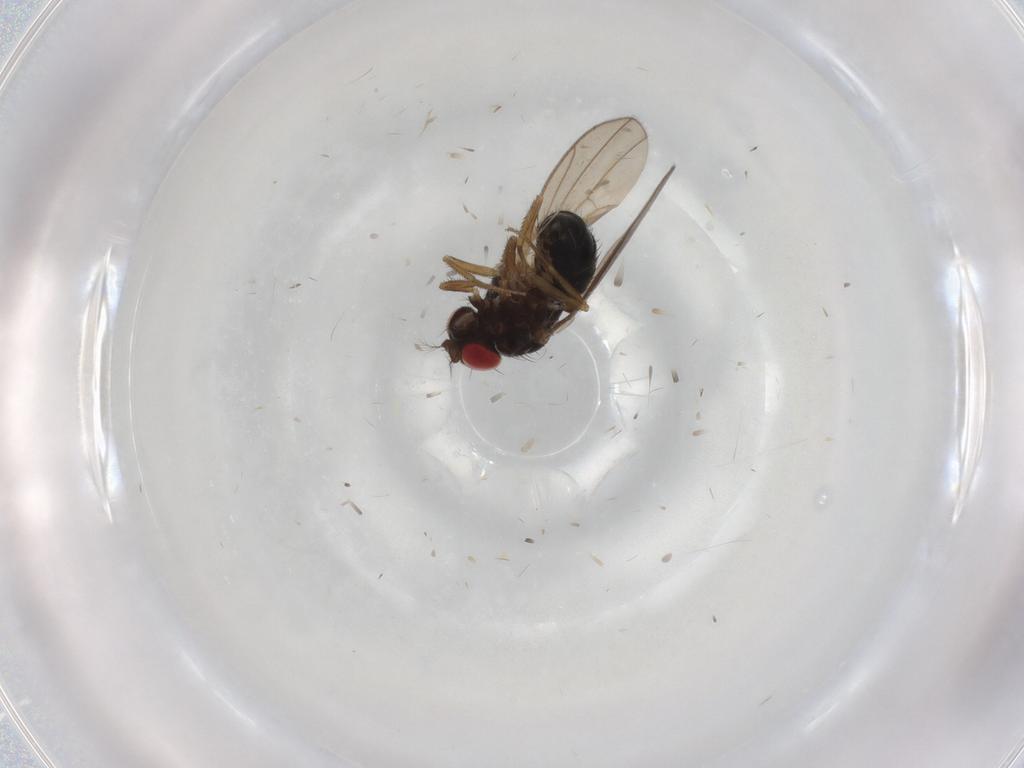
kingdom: Animalia
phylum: Arthropoda
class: Insecta
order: Diptera
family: Drosophilidae
